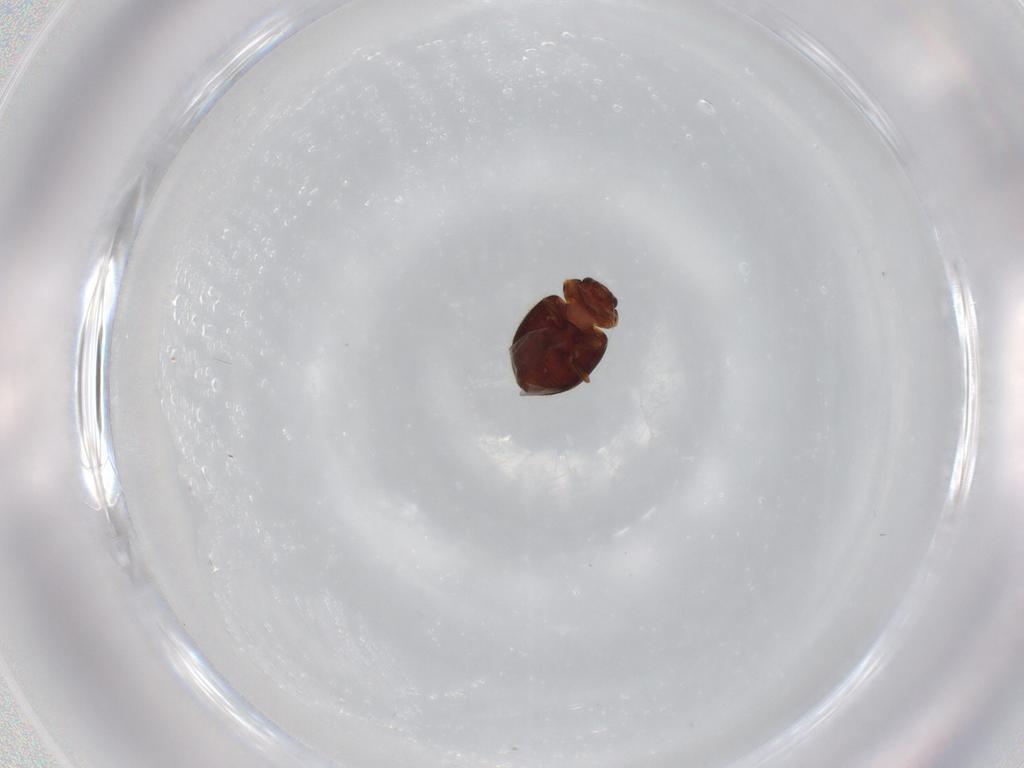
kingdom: Animalia
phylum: Arthropoda
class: Insecta
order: Coleoptera
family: Coccinellidae
